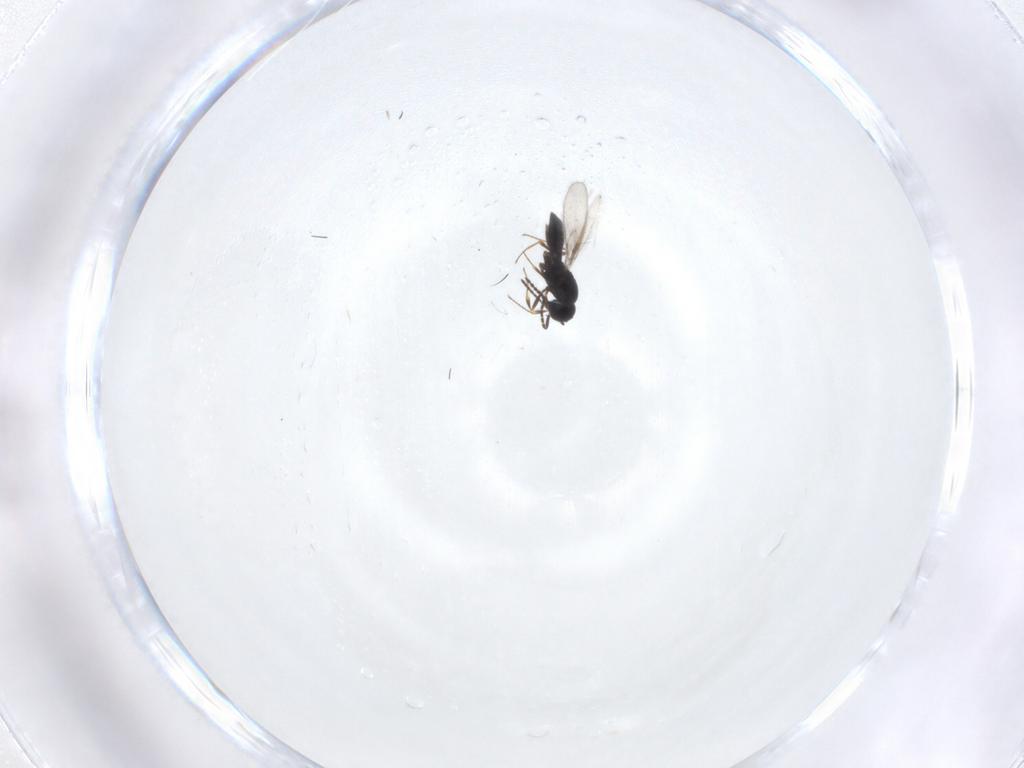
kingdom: Animalia
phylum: Arthropoda
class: Insecta
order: Hymenoptera
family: Scelionidae
